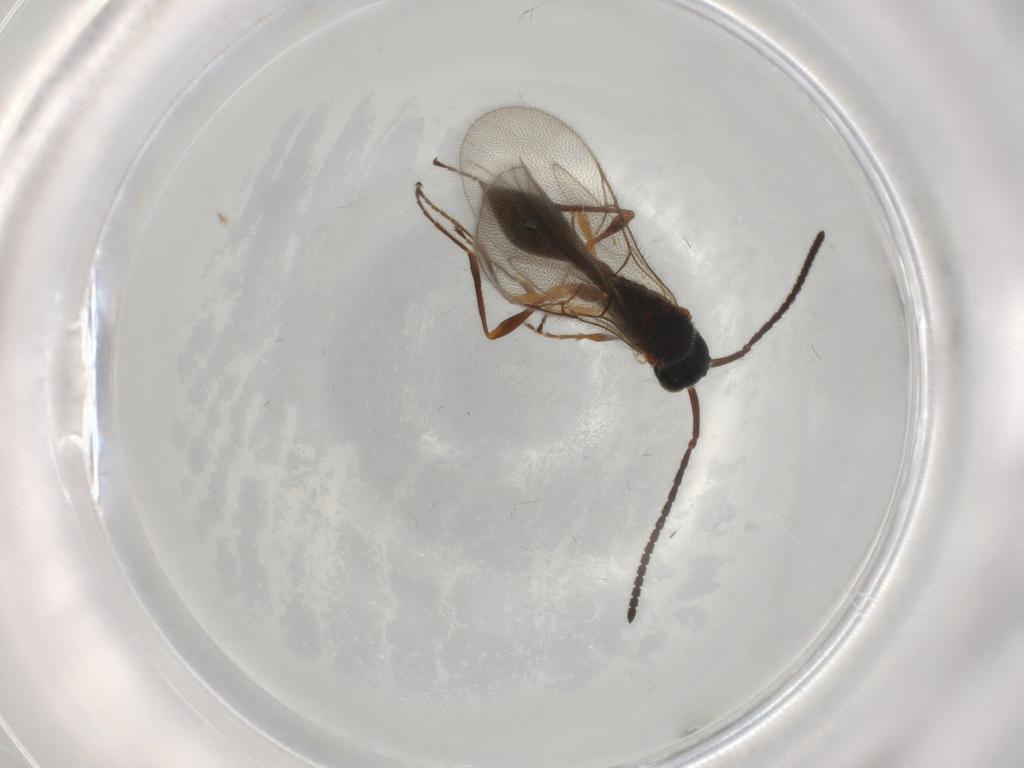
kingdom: Animalia
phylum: Arthropoda
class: Insecta
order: Hymenoptera
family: Diapriidae
